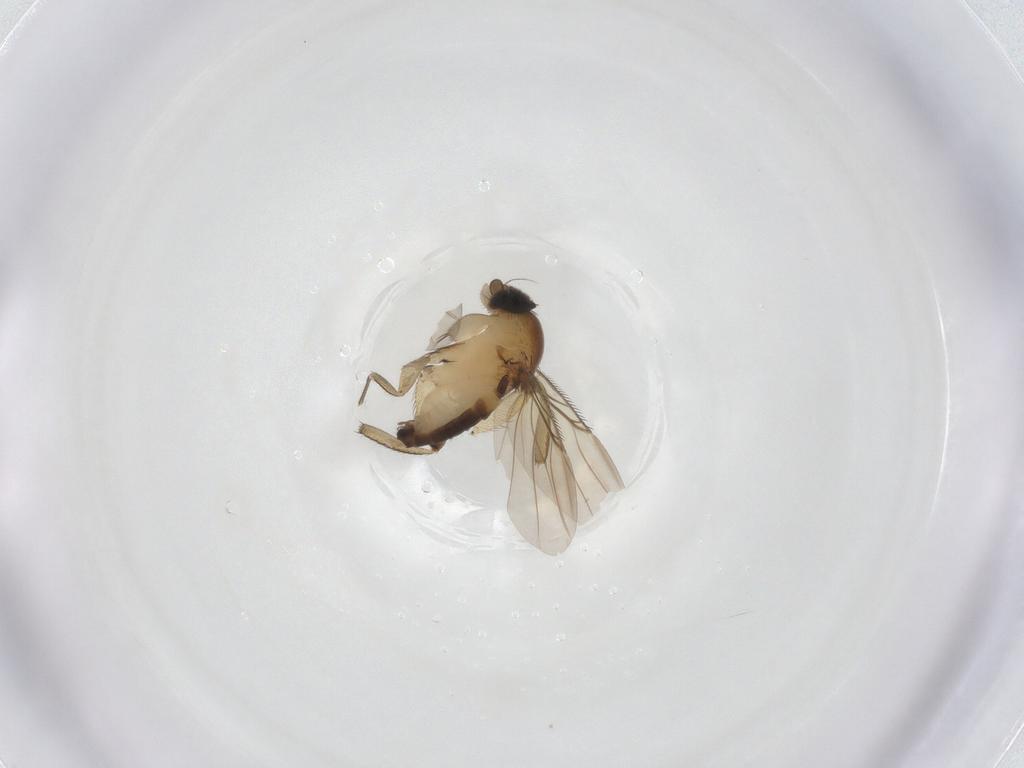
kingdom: Animalia
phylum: Arthropoda
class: Insecta
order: Diptera
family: Phoridae
